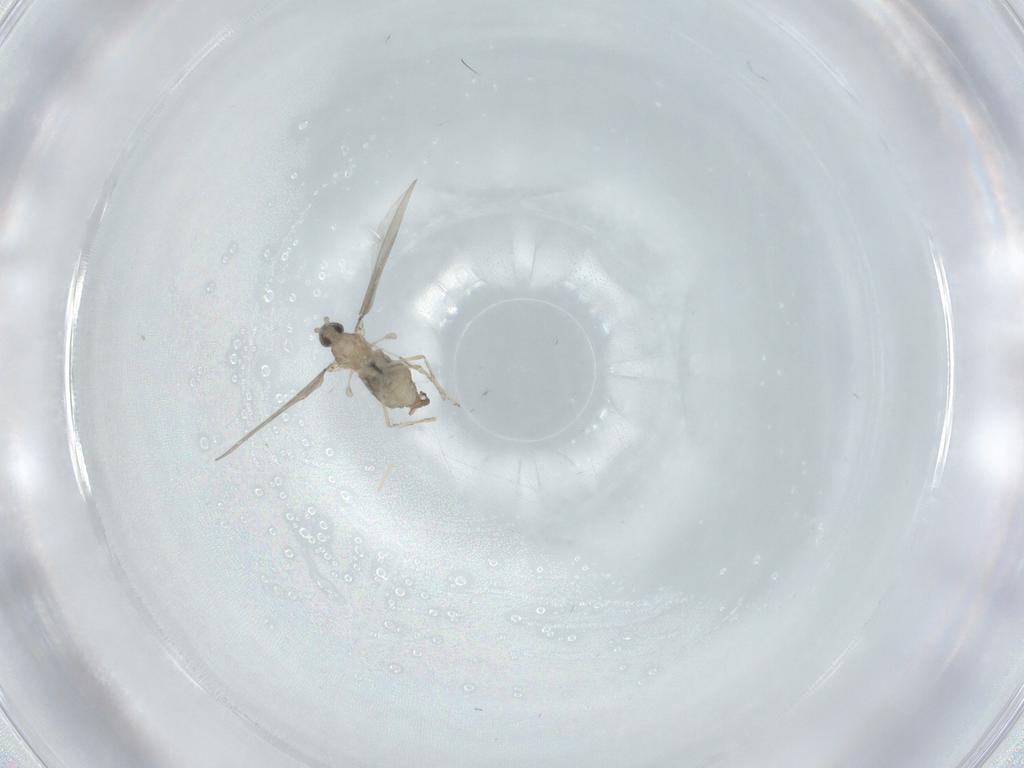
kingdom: Animalia
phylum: Arthropoda
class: Insecta
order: Diptera
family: Cecidomyiidae
